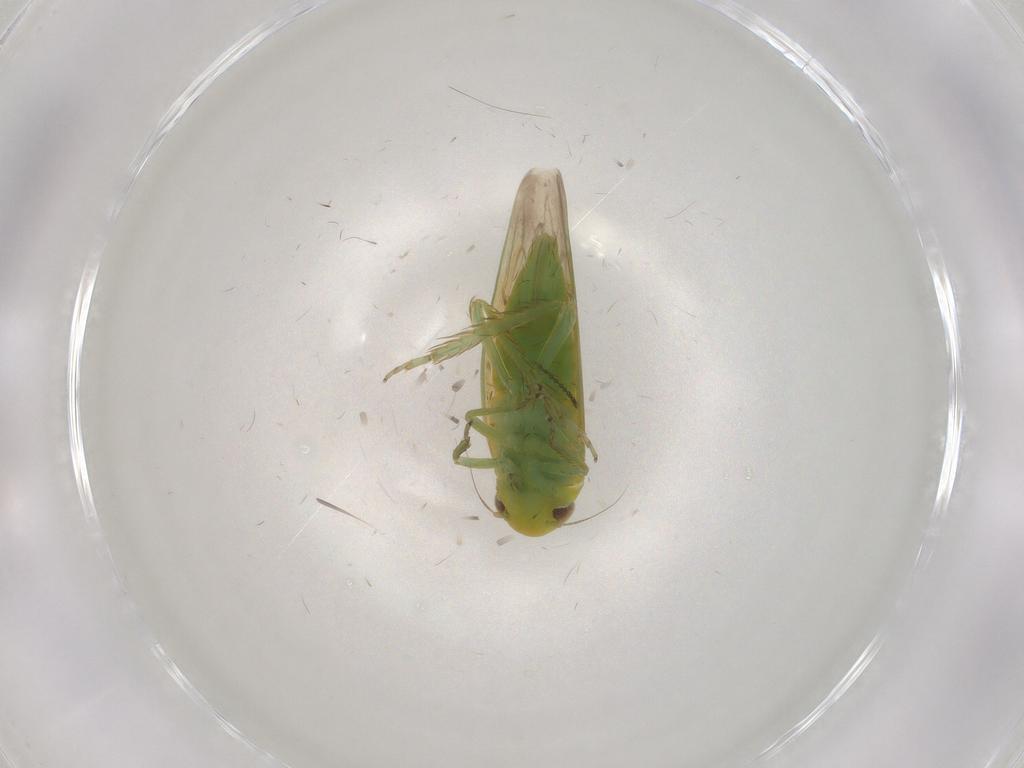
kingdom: Animalia
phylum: Arthropoda
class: Insecta
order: Hemiptera
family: Cicadellidae
